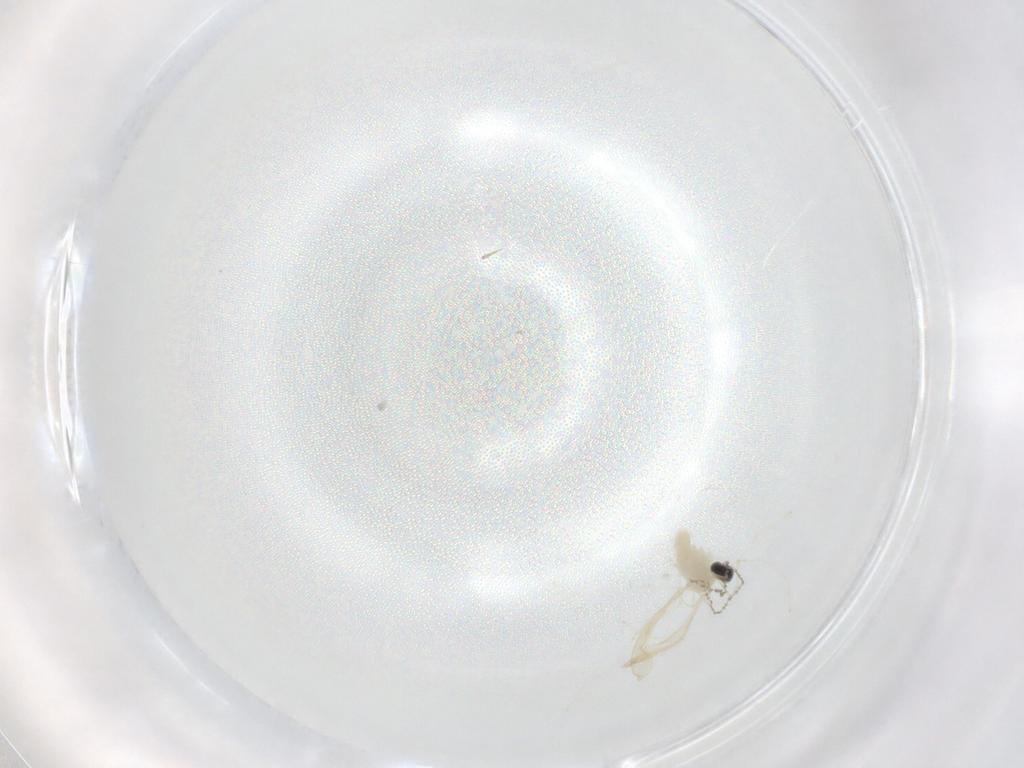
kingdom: Animalia
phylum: Arthropoda
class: Insecta
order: Diptera
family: Cecidomyiidae
